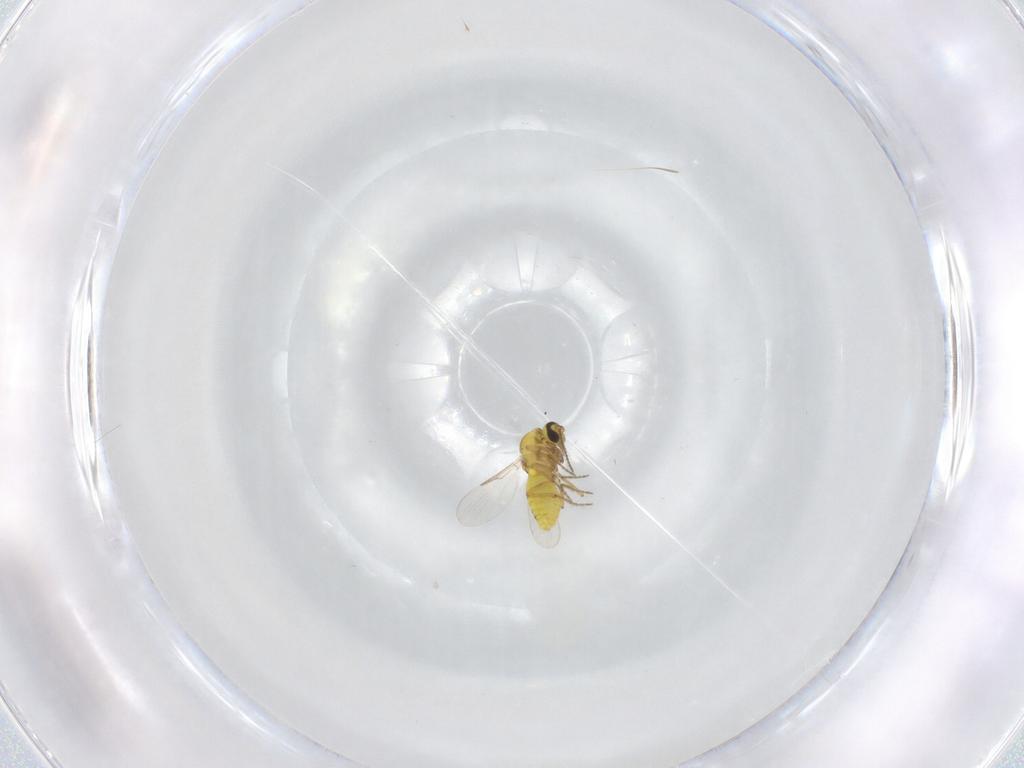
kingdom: Animalia
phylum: Arthropoda
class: Insecta
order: Diptera
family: Ceratopogonidae
